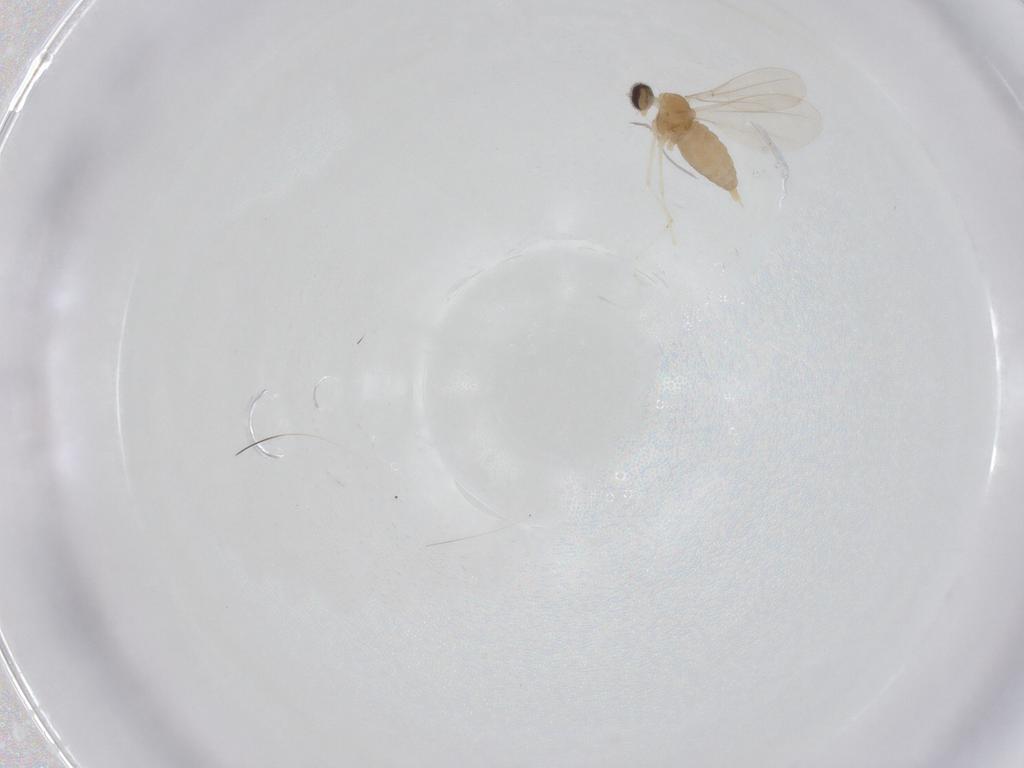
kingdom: Animalia
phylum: Arthropoda
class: Insecta
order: Diptera
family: Cecidomyiidae
